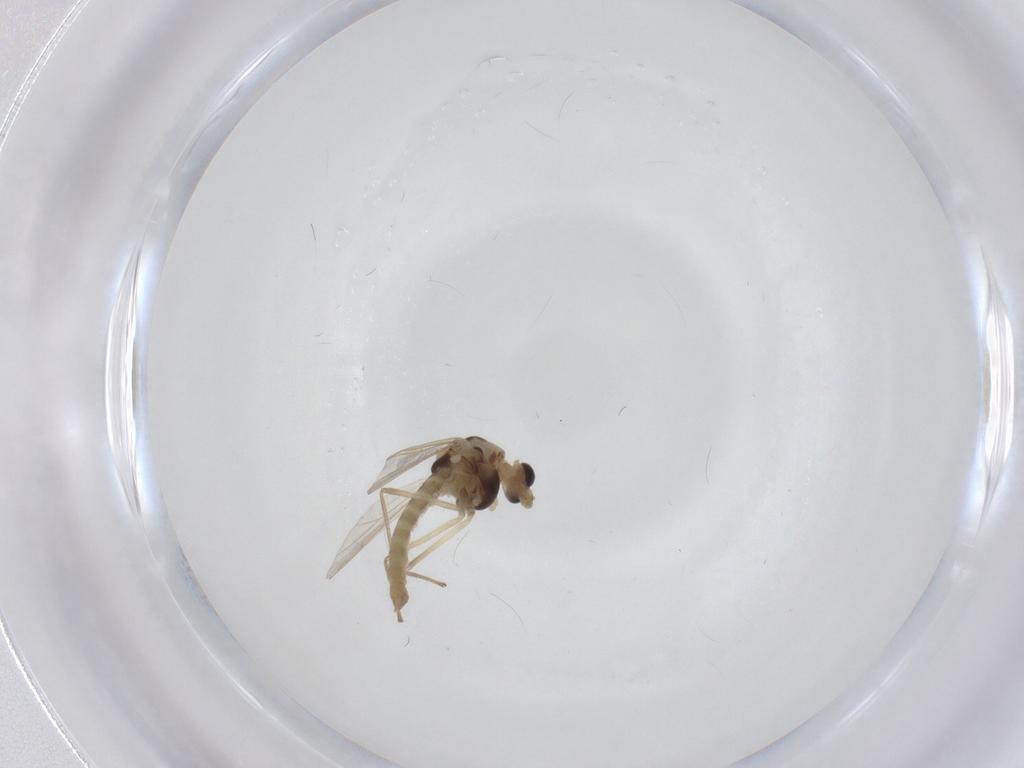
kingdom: Animalia
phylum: Arthropoda
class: Insecta
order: Diptera
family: Chironomidae
